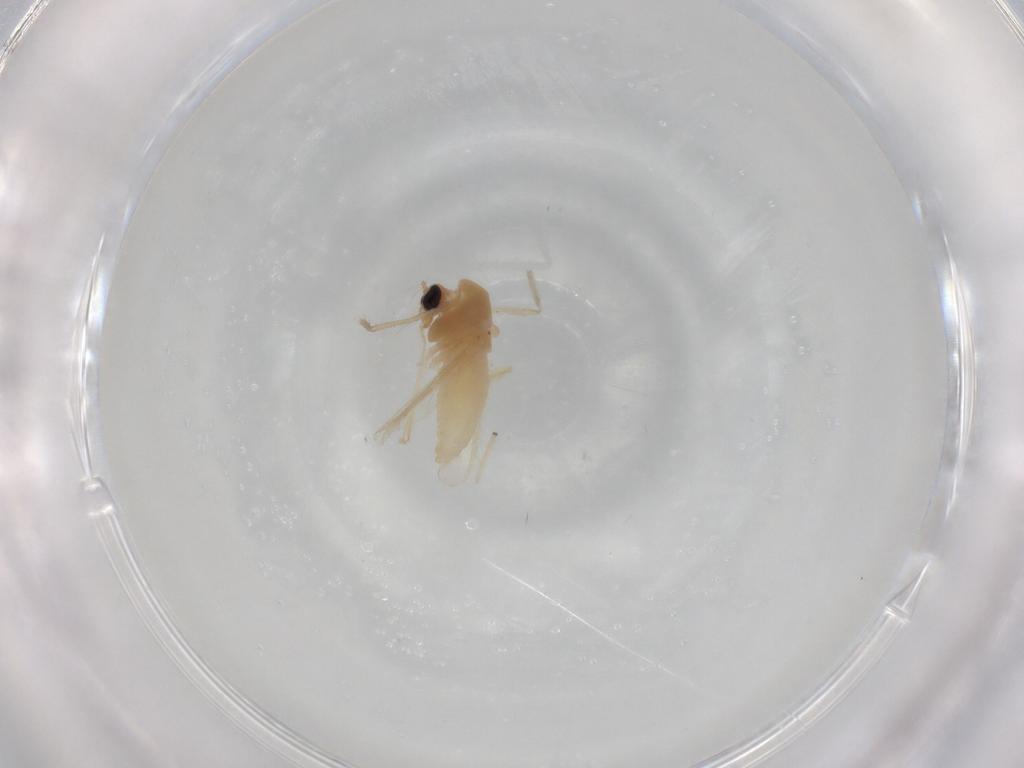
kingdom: Animalia
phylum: Arthropoda
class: Insecta
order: Diptera
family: Chironomidae
